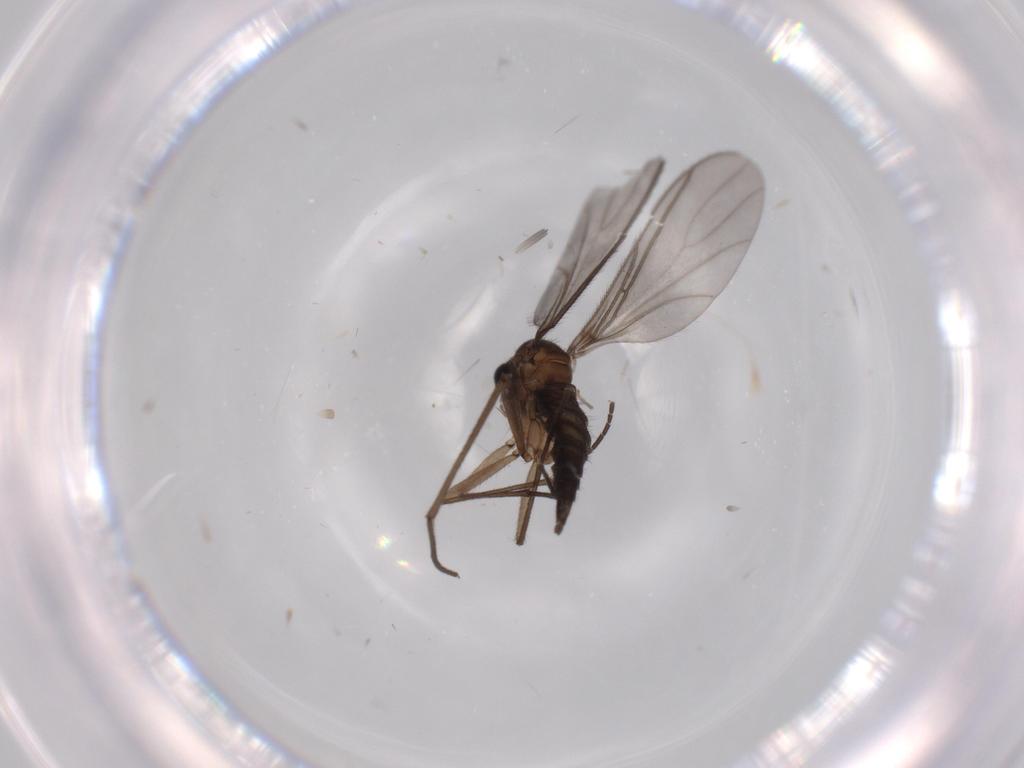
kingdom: Animalia
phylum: Arthropoda
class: Insecta
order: Diptera
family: Sciaridae
